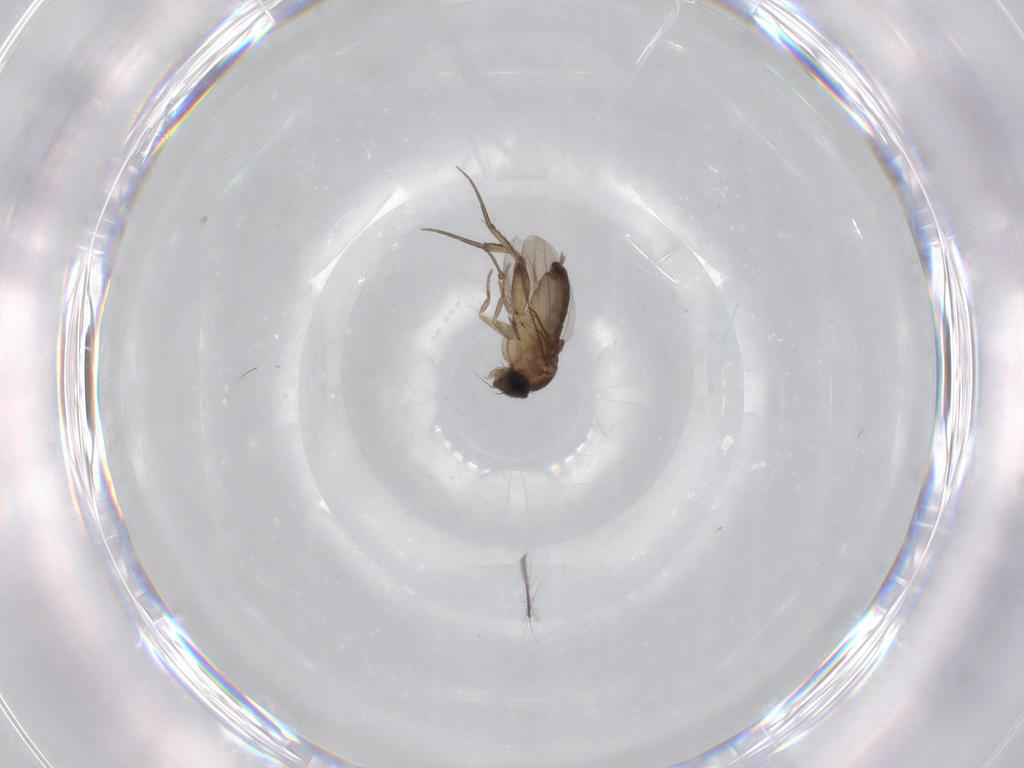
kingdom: Animalia
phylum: Arthropoda
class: Insecta
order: Diptera
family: Phoridae
